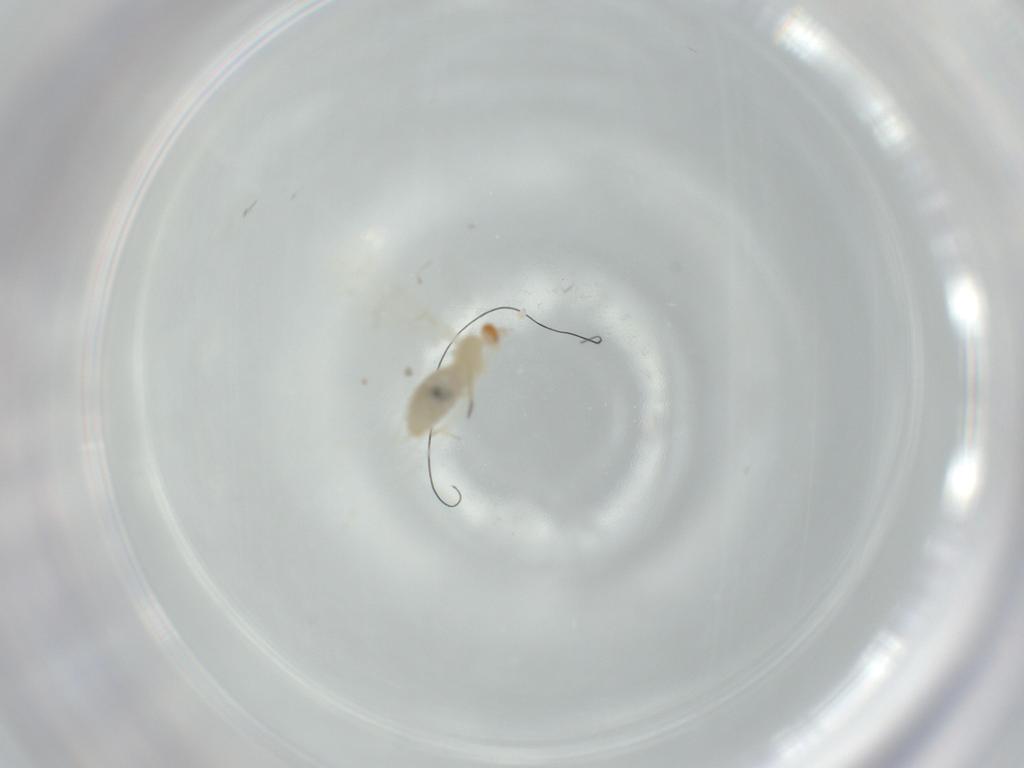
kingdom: Animalia
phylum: Arthropoda
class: Insecta
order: Diptera
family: Cecidomyiidae
